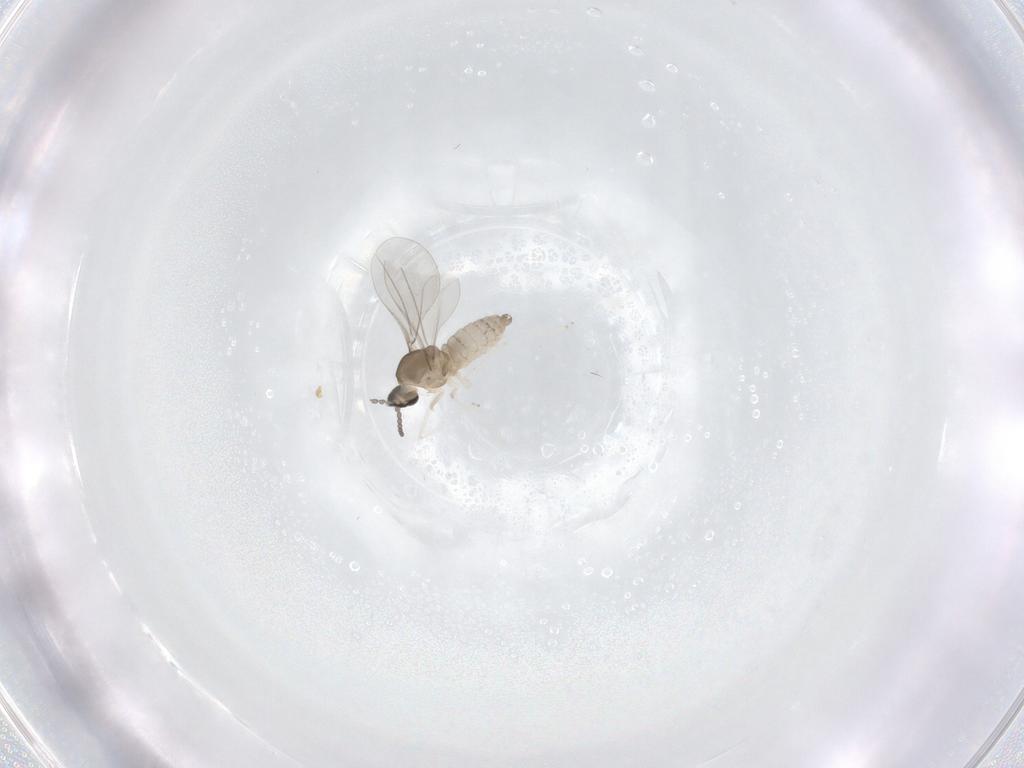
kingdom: Animalia
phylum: Arthropoda
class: Insecta
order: Diptera
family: Cecidomyiidae
